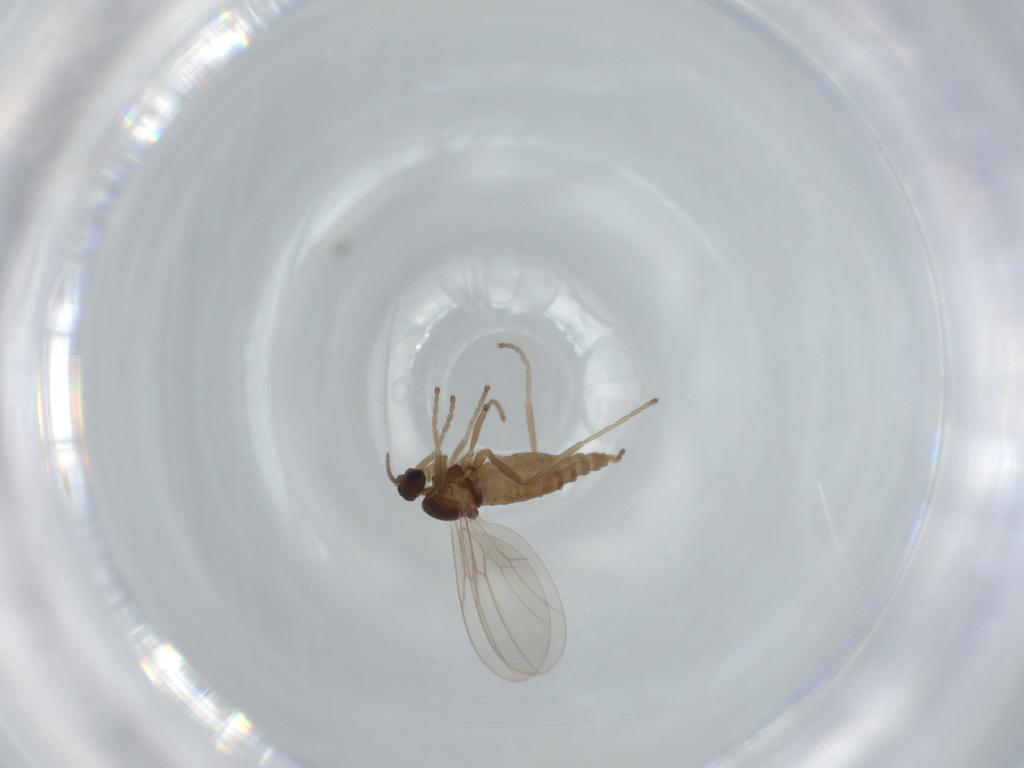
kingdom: Animalia
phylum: Arthropoda
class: Insecta
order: Diptera
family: Cecidomyiidae
